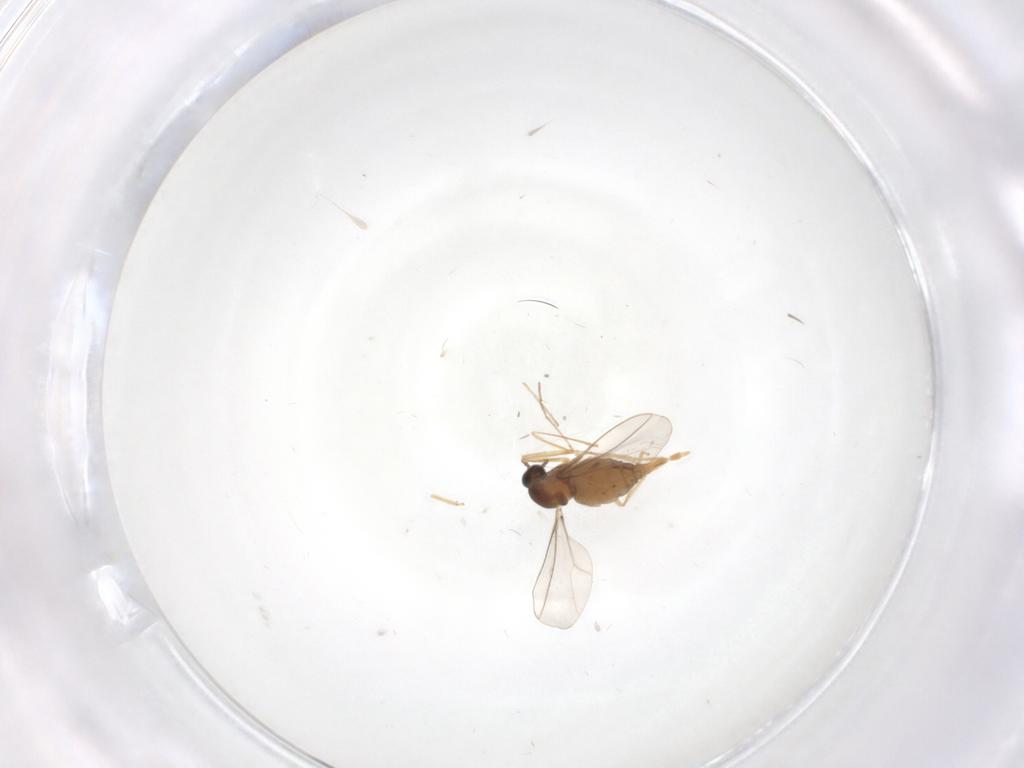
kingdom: Animalia
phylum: Arthropoda
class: Insecta
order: Diptera
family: Cecidomyiidae
